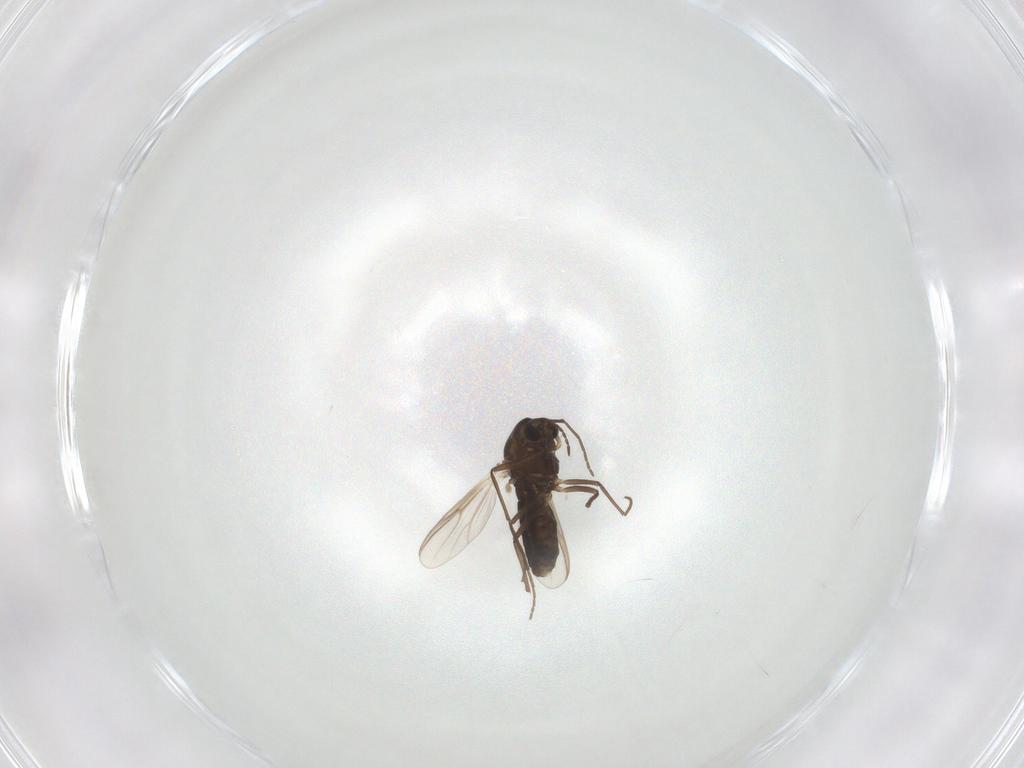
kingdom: Animalia
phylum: Arthropoda
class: Insecta
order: Diptera
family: Chironomidae
